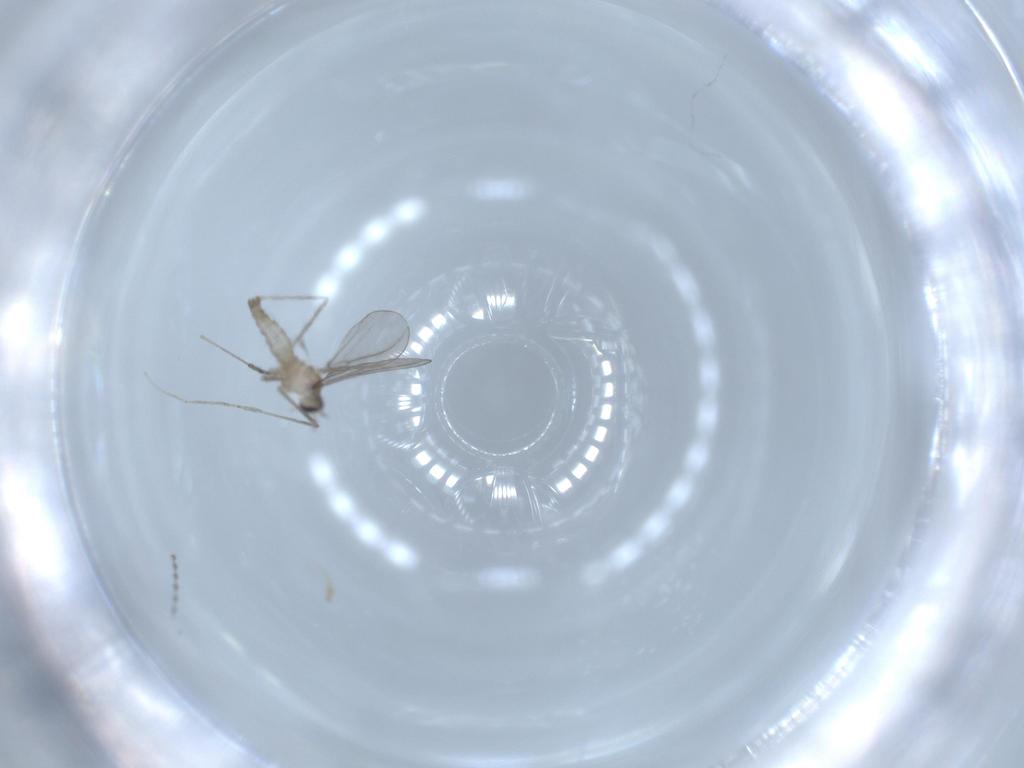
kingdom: Animalia
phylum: Arthropoda
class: Insecta
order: Diptera
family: Cecidomyiidae
